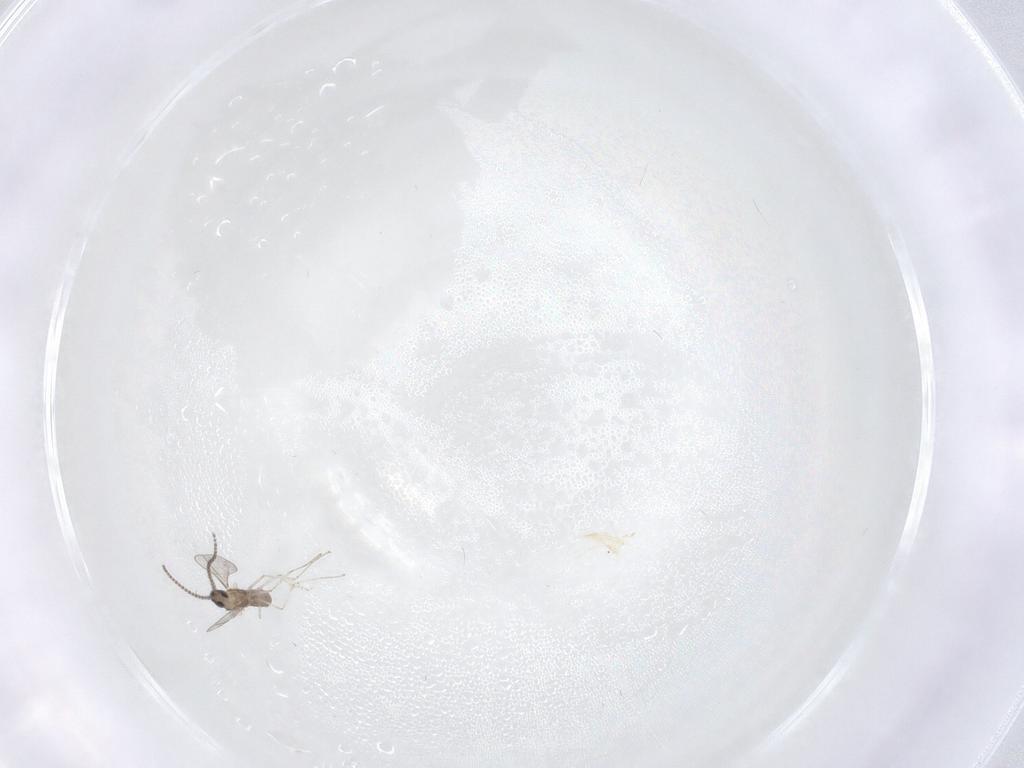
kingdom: Animalia
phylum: Arthropoda
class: Insecta
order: Diptera
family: Cecidomyiidae
